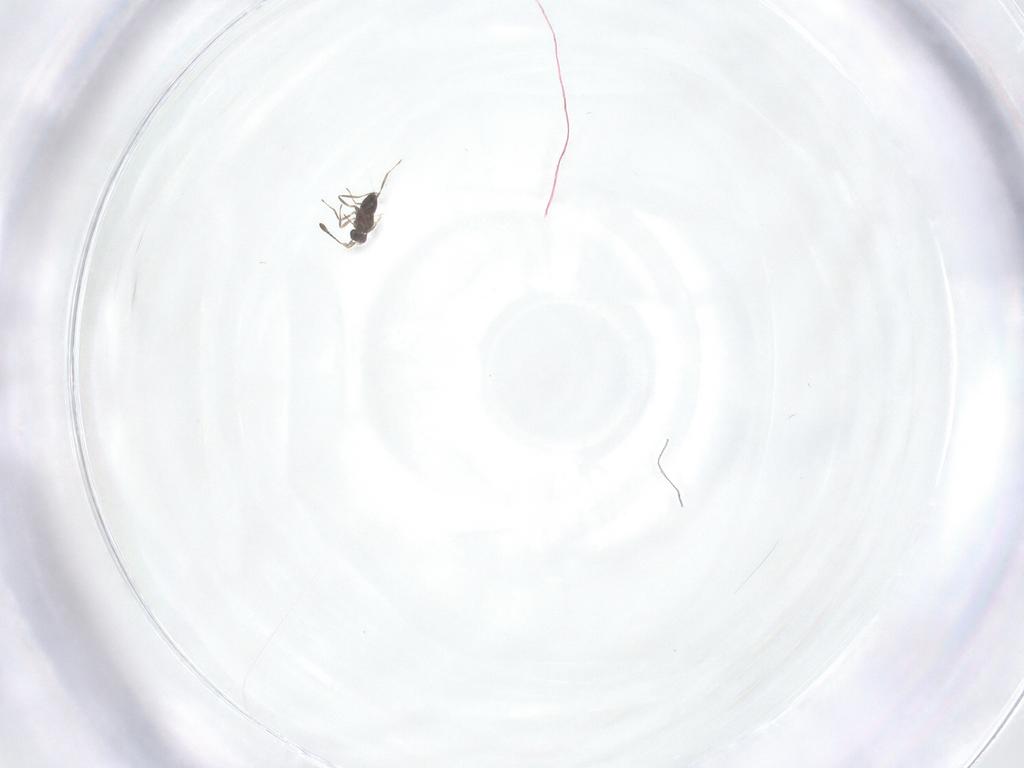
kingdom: Animalia
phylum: Arthropoda
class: Insecta
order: Hymenoptera
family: Mymaridae
